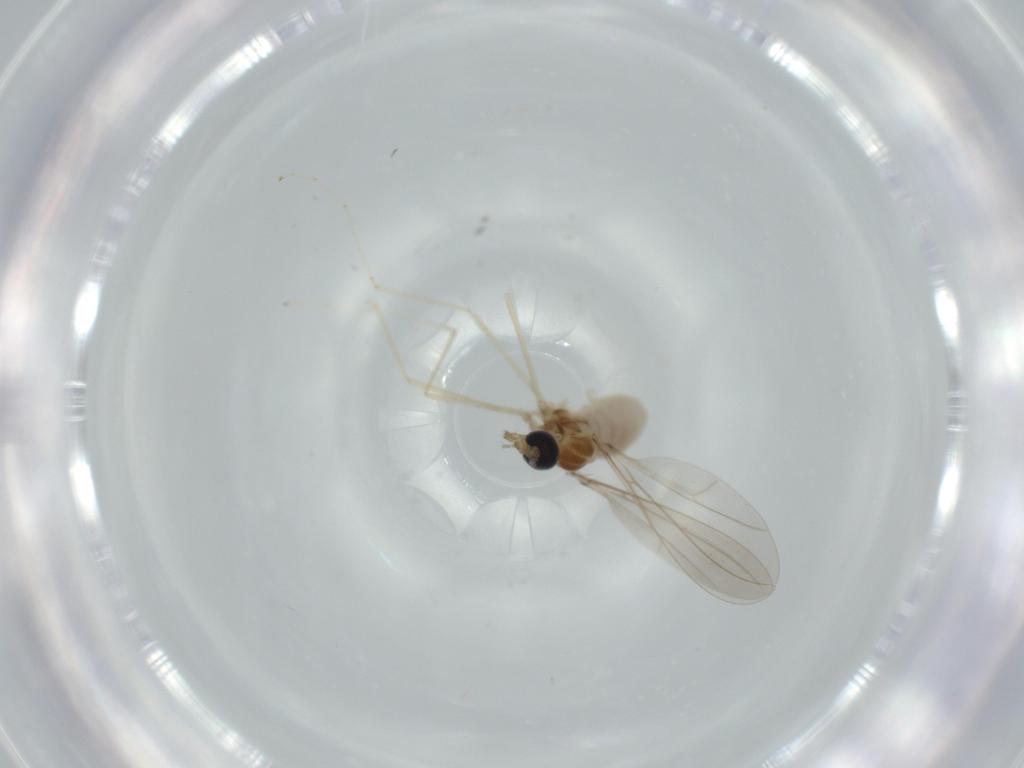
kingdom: Animalia
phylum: Arthropoda
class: Insecta
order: Diptera
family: Cecidomyiidae
